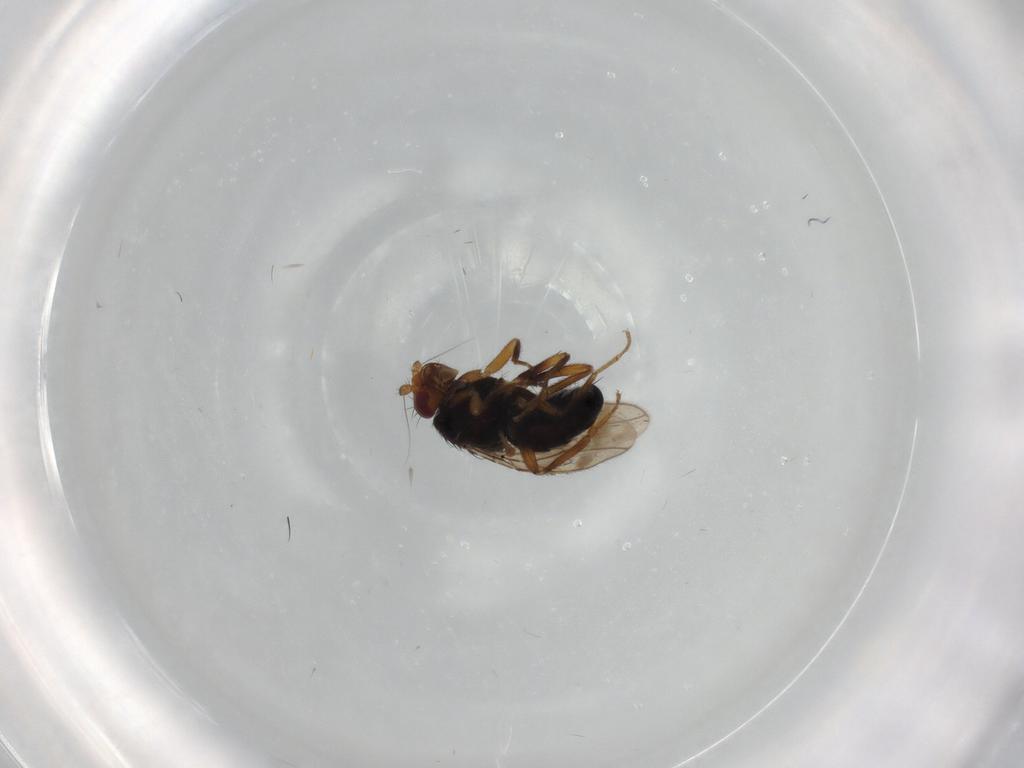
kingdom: Animalia
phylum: Arthropoda
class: Insecta
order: Diptera
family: Sphaeroceridae
